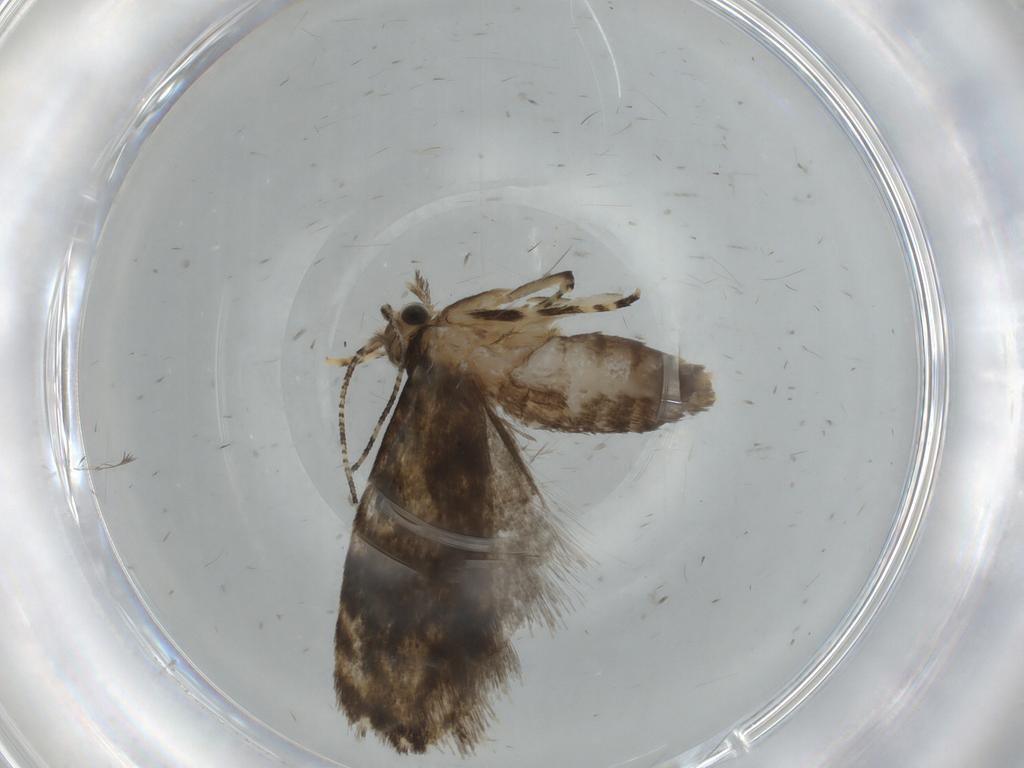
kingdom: Animalia
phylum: Arthropoda
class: Insecta
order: Lepidoptera
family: Tineidae
